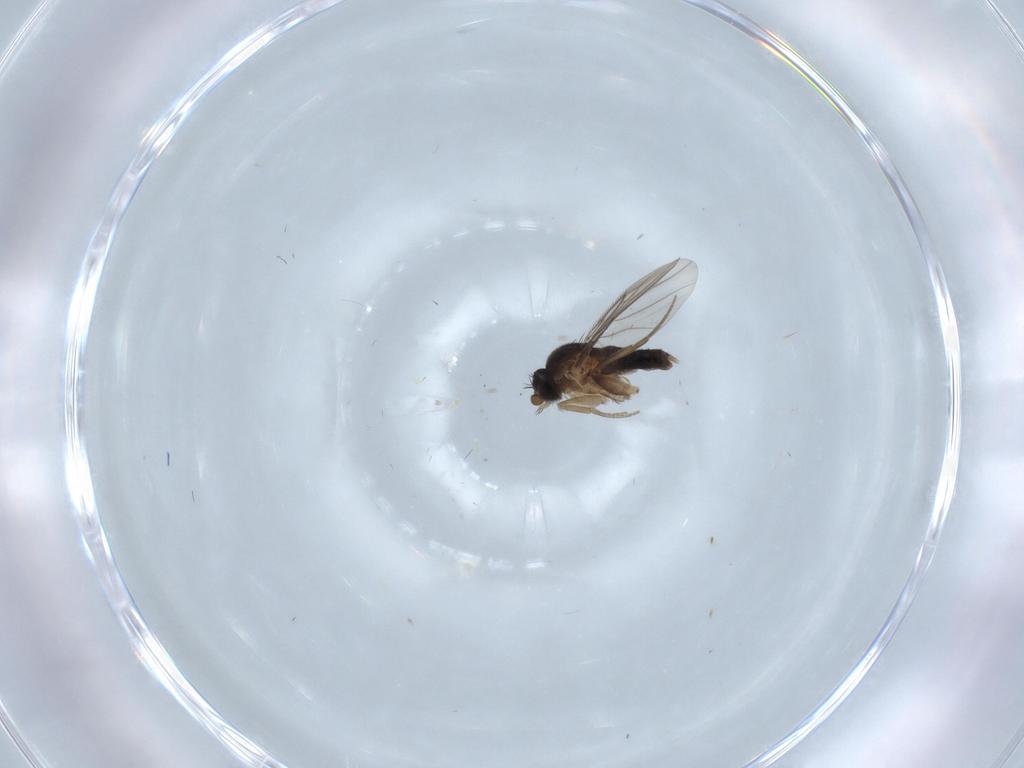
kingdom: Animalia
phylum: Arthropoda
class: Insecta
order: Diptera
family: Phoridae
